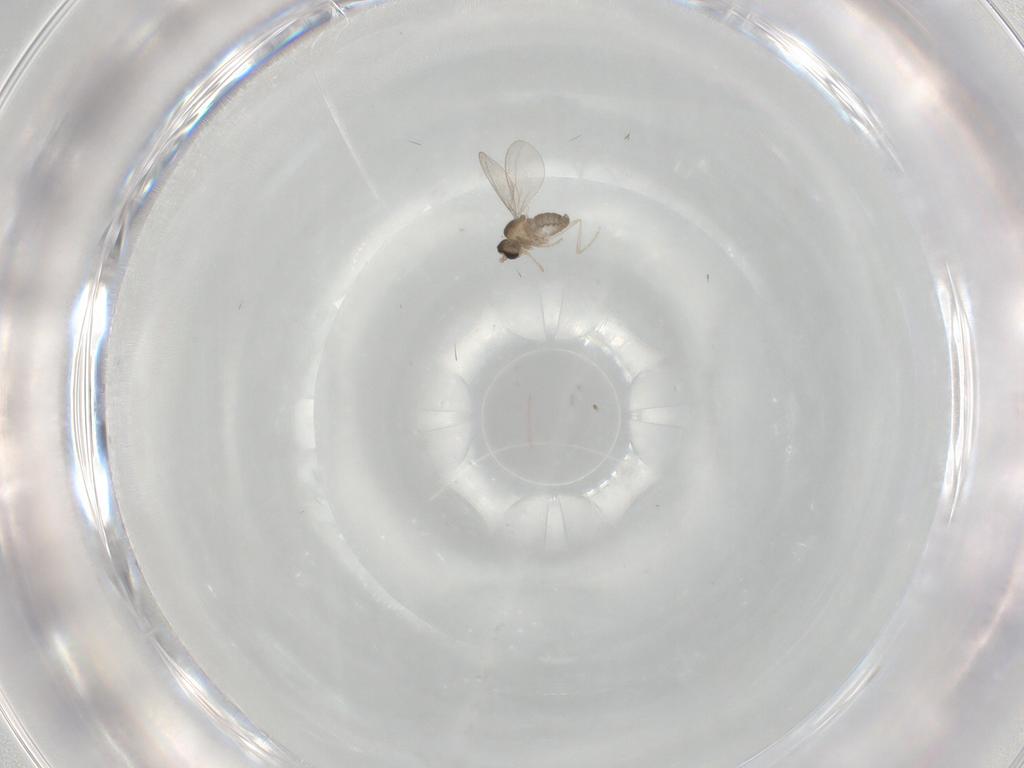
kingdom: Animalia
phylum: Arthropoda
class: Insecta
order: Diptera
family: Cecidomyiidae
